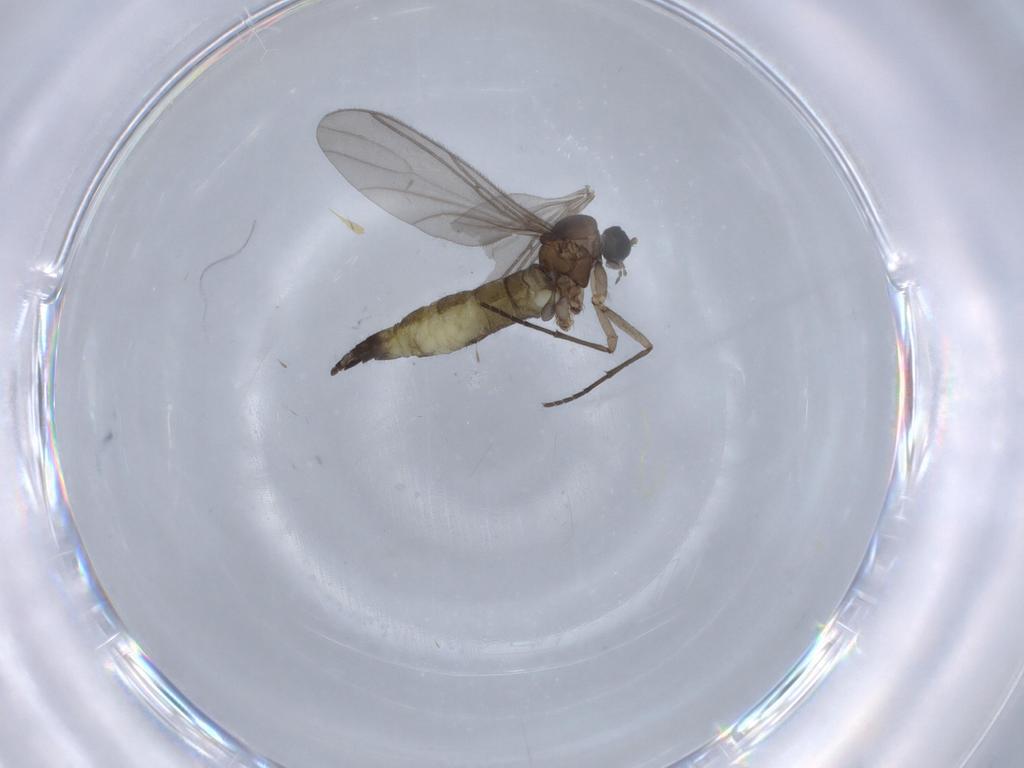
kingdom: Animalia
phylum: Arthropoda
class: Insecta
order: Diptera
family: Sciaridae
